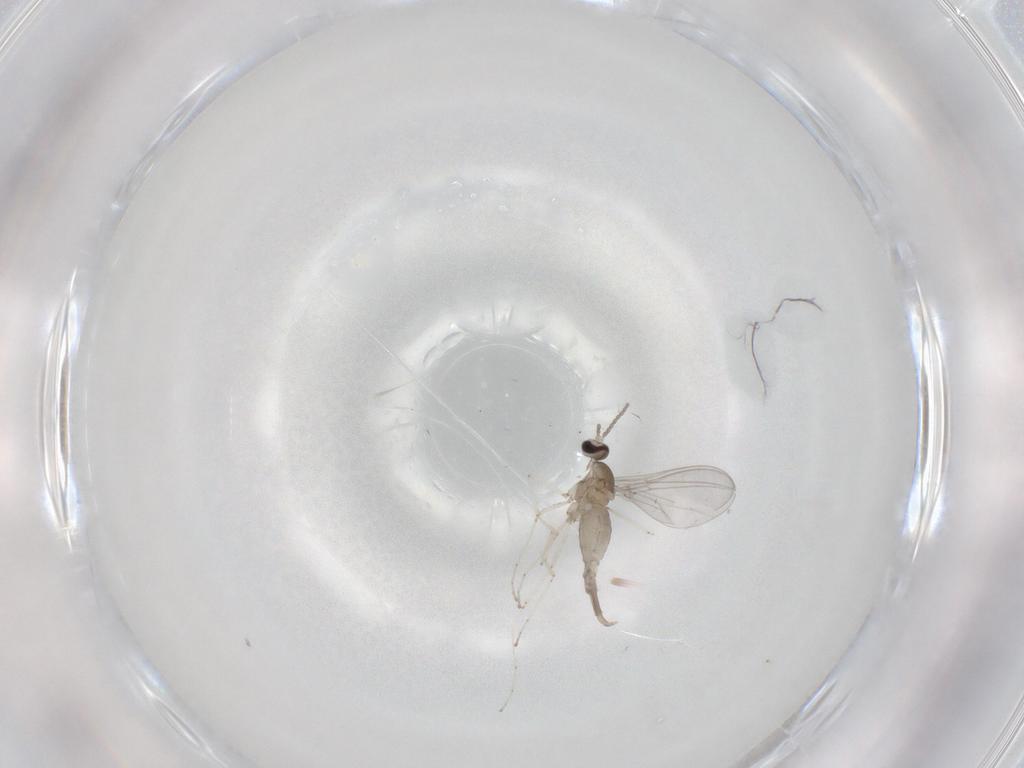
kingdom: Animalia
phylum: Arthropoda
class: Insecta
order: Diptera
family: Cecidomyiidae
